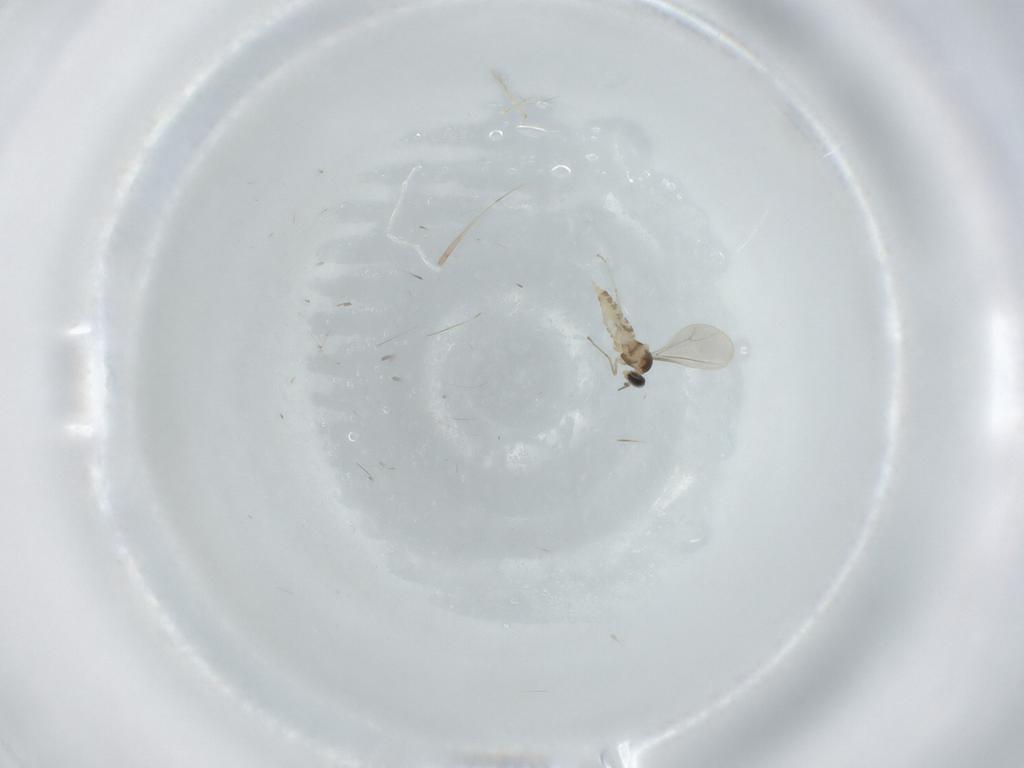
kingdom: Animalia
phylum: Arthropoda
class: Insecta
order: Diptera
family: Cecidomyiidae
